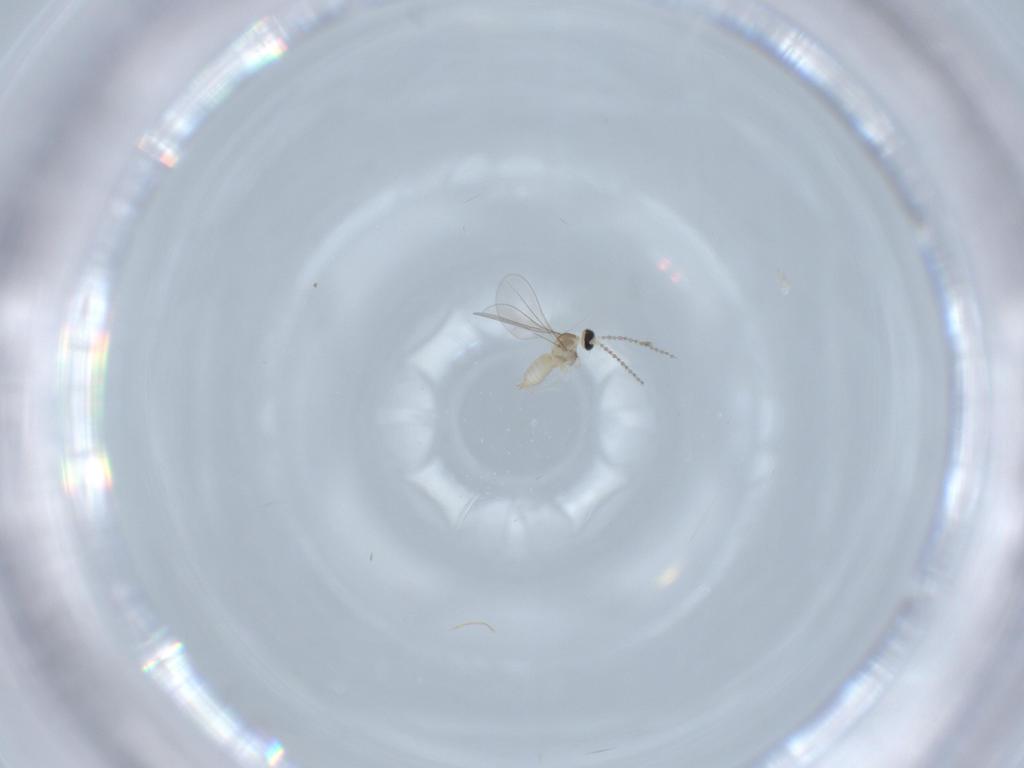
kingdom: Animalia
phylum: Arthropoda
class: Insecta
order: Diptera
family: Cecidomyiidae
